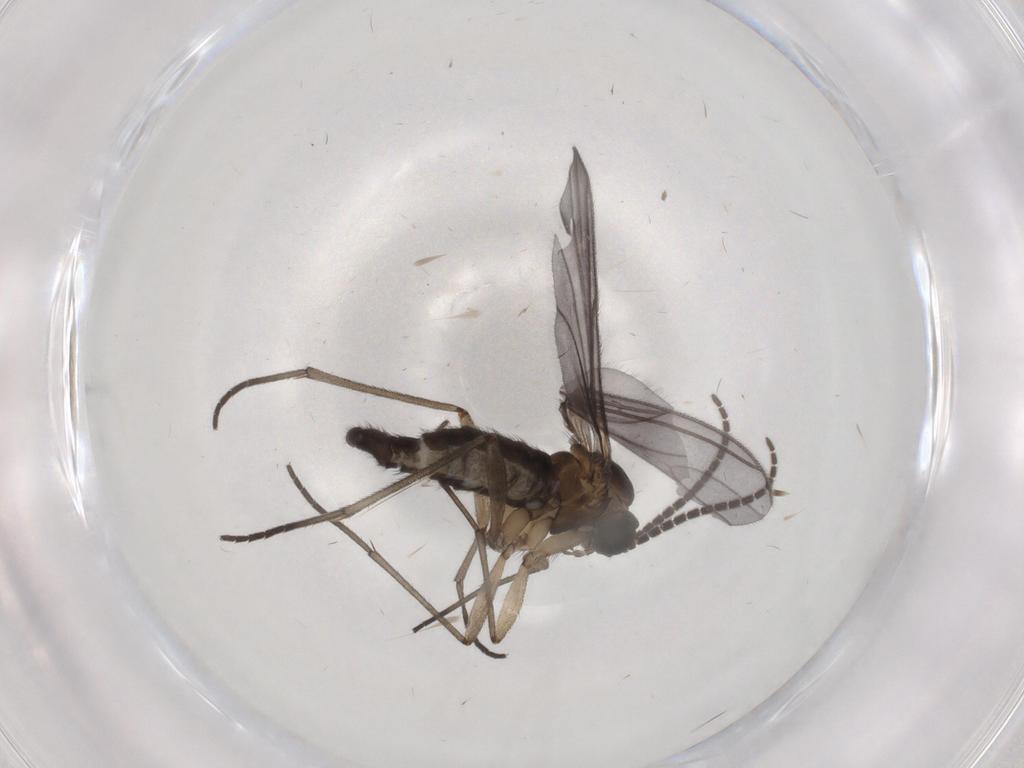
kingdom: Animalia
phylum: Arthropoda
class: Insecta
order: Diptera
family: Sciaridae
